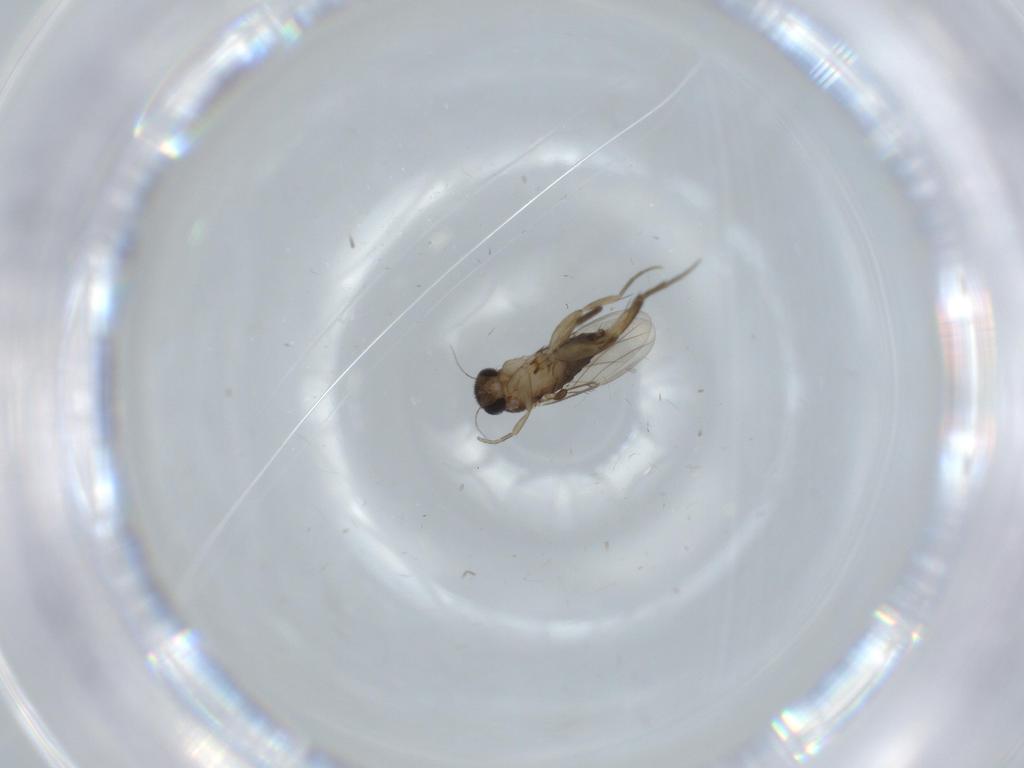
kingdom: Animalia
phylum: Arthropoda
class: Insecta
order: Diptera
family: Phoridae
